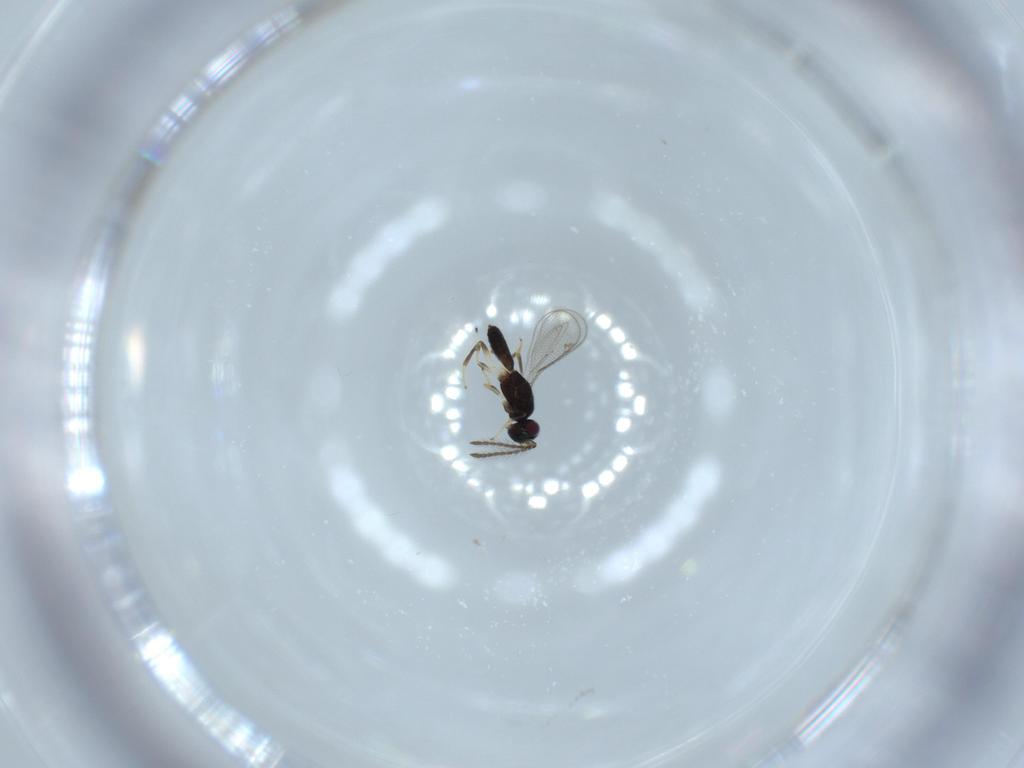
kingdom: Animalia
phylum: Arthropoda
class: Insecta
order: Hymenoptera
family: Eupelmidae
